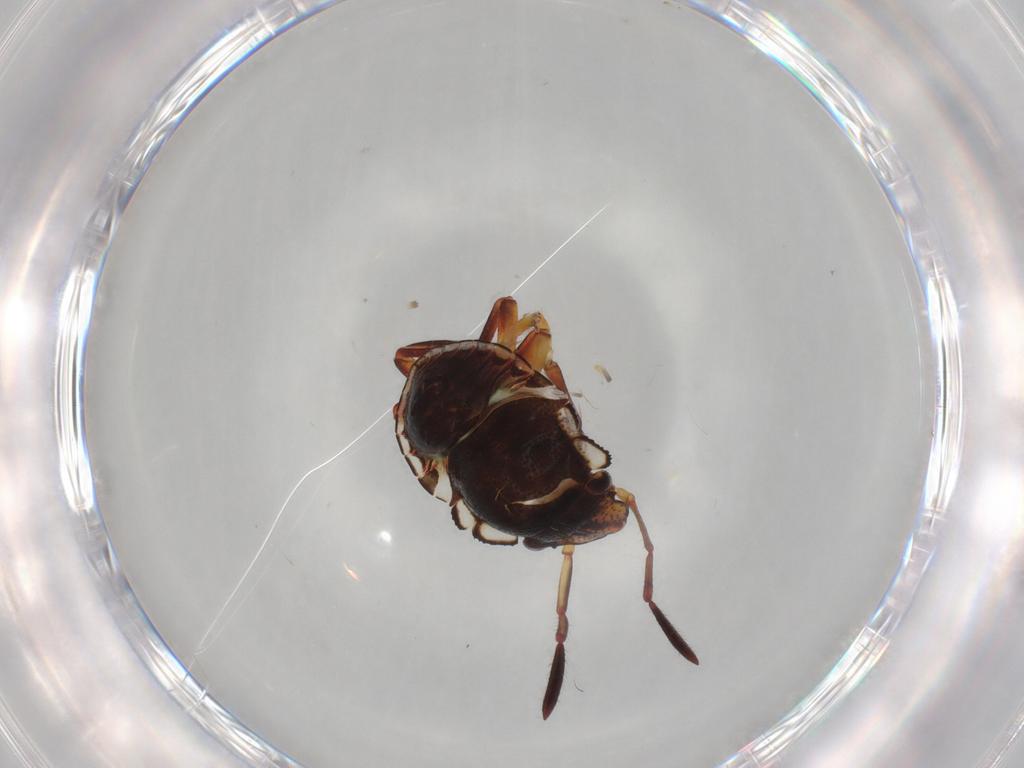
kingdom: Animalia
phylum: Arthropoda
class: Insecta
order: Hemiptera
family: Pentatomidae
